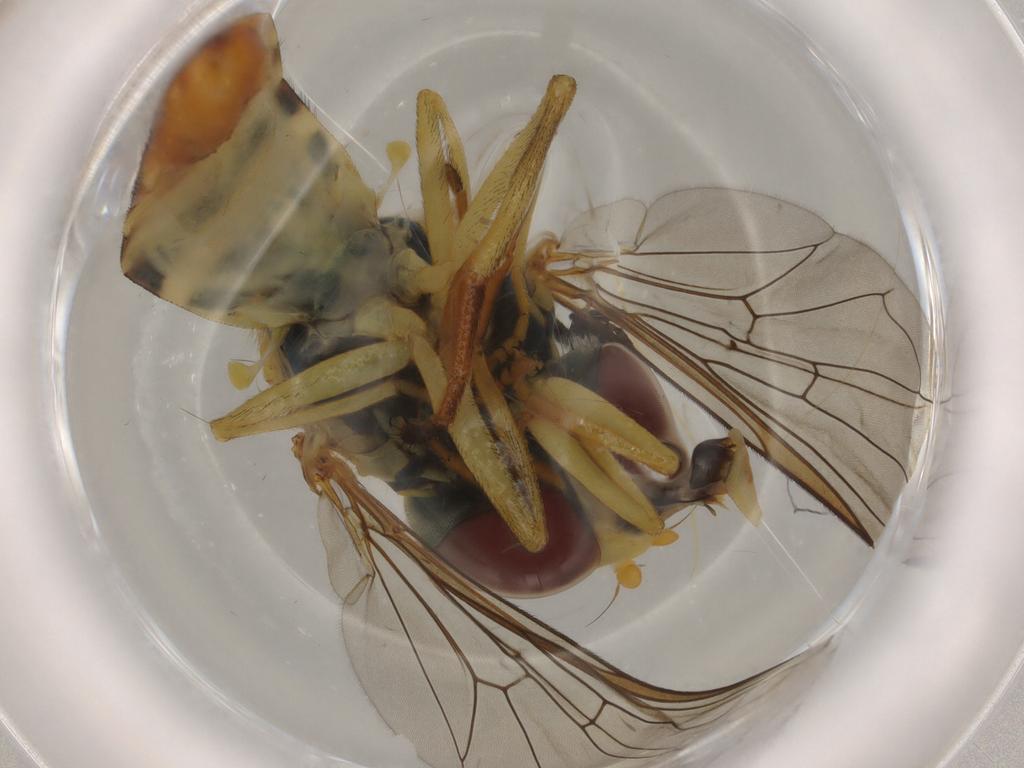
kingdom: Animalia
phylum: Arthropoda
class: Insecta
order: Diptera
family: Syrphidae
